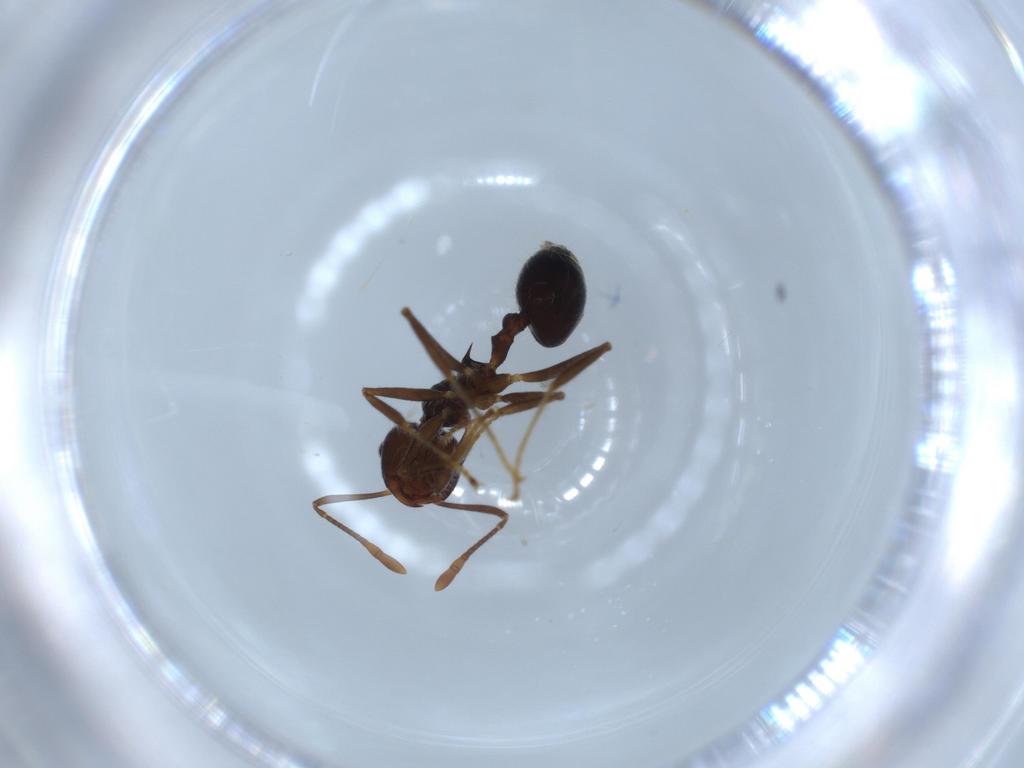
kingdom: Animalia
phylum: Arthropoda
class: Insecta
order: Hymenoptera
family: Formicidae
